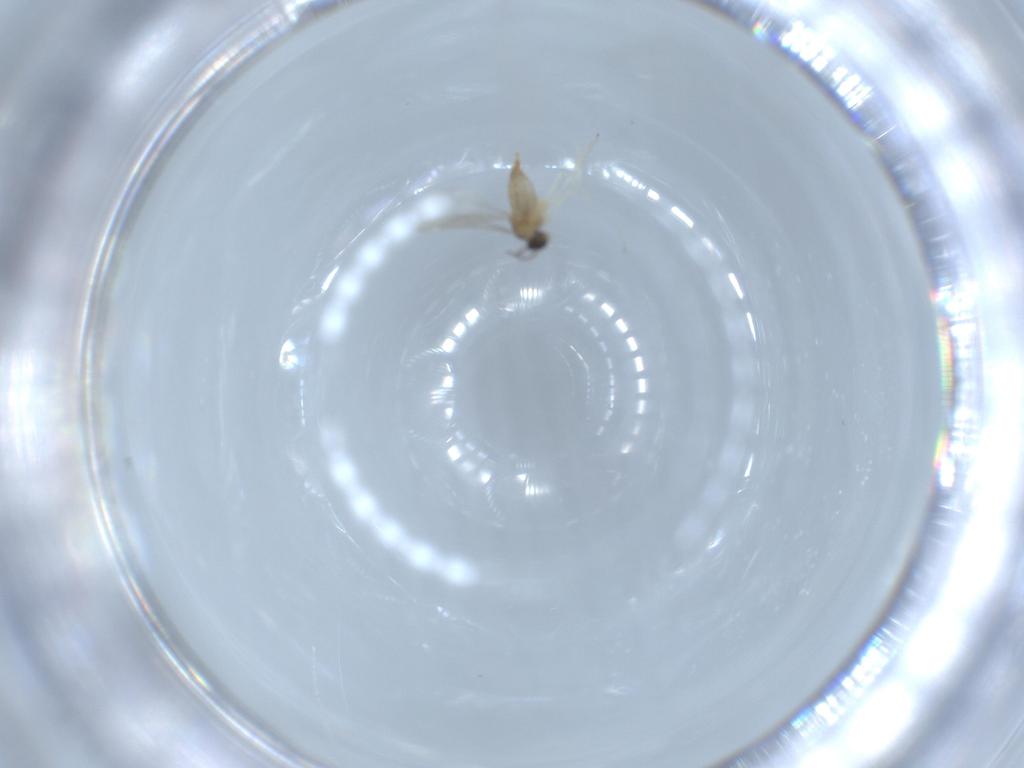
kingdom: Animalia
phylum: Arthropoda
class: Insecta
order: Diptera
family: Cecidomyiidae
